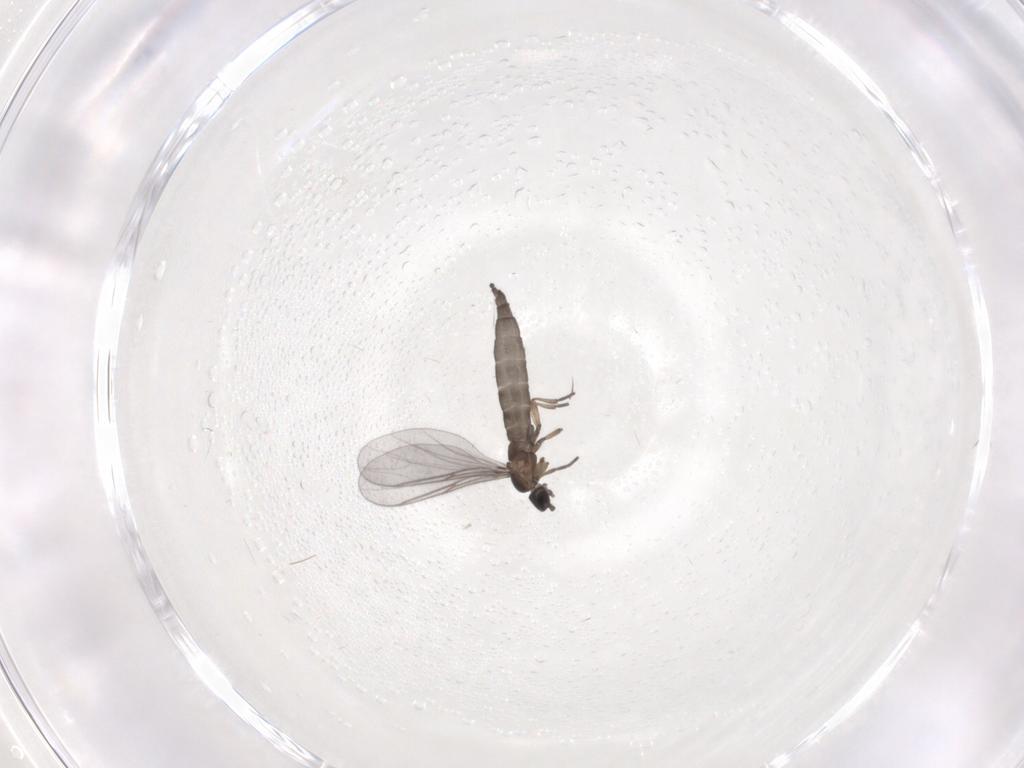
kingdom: Animalia
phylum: Arthropoda
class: Insecta
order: Diptera
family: Sciaridae
